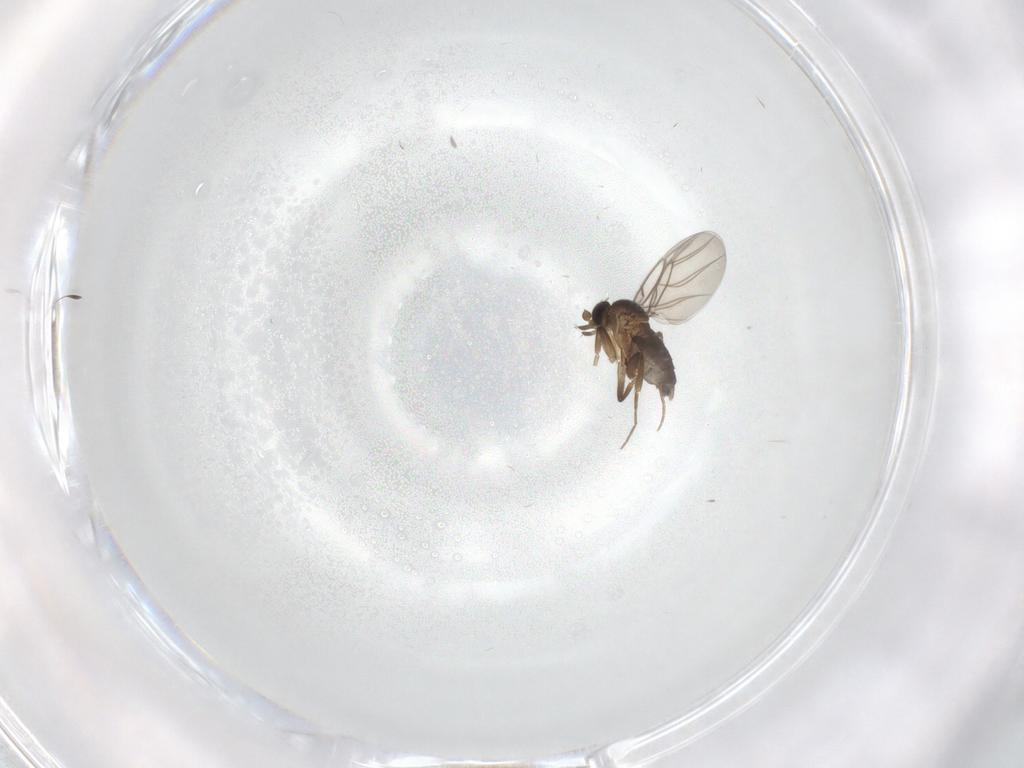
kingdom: Animalia
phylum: Arthropoda
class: Insecta
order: Diptera
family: Phoridae
